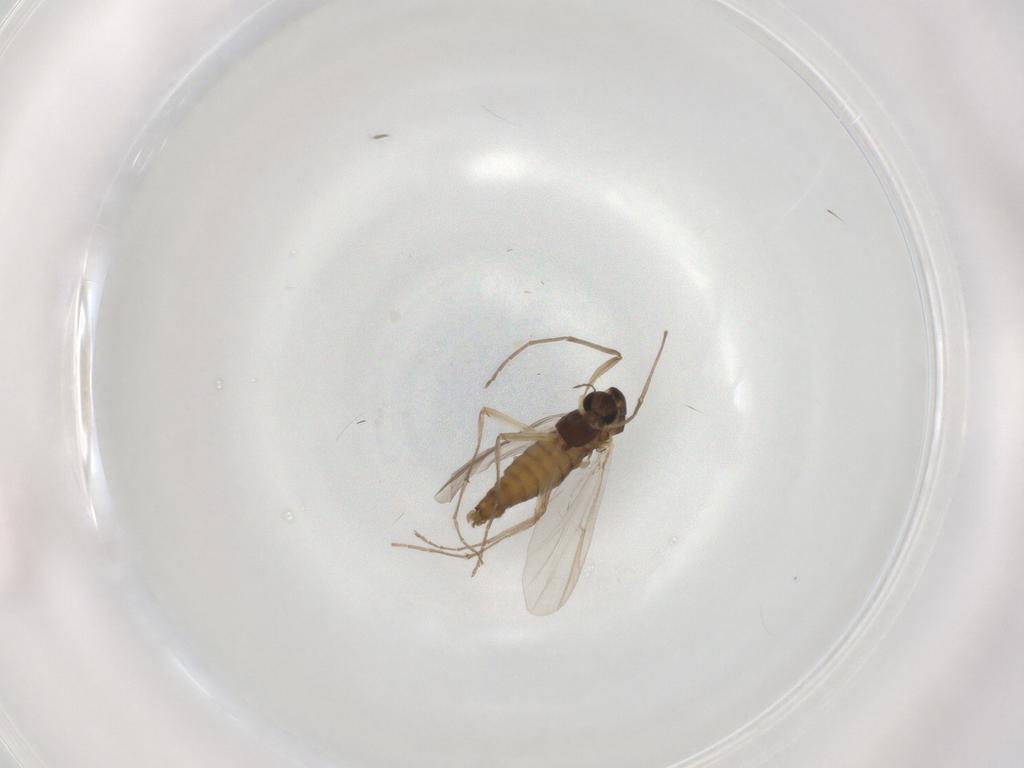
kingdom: Animalia
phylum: Arthropoda
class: Insecta
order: Diptera
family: Chironomidae
